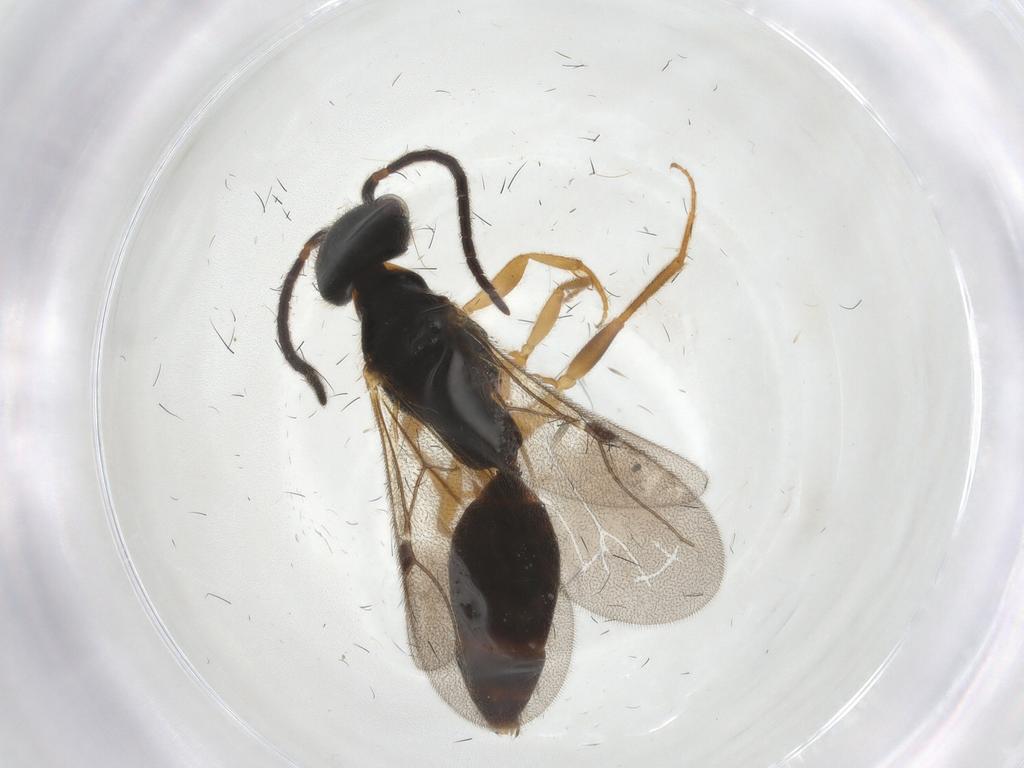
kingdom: Animalia
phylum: Arthropoda
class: Insecta
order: Hymenoptera
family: Bethylidae
